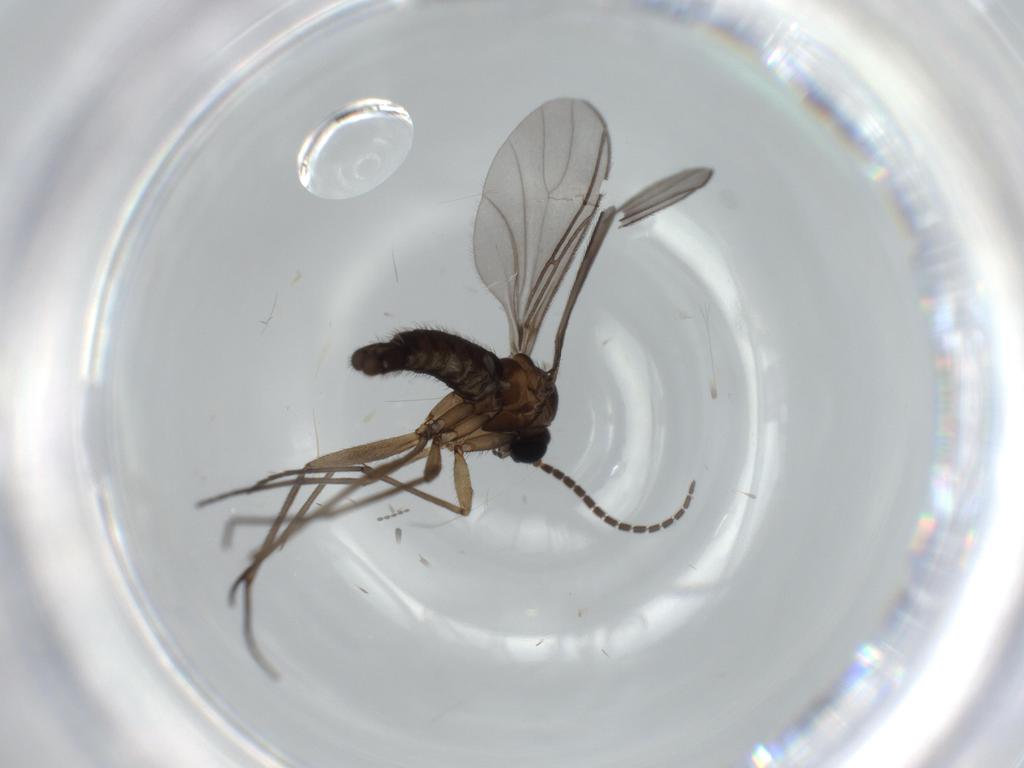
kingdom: Animalia
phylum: Arthropoda
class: Insecta
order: Diptera
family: Sciaridae
